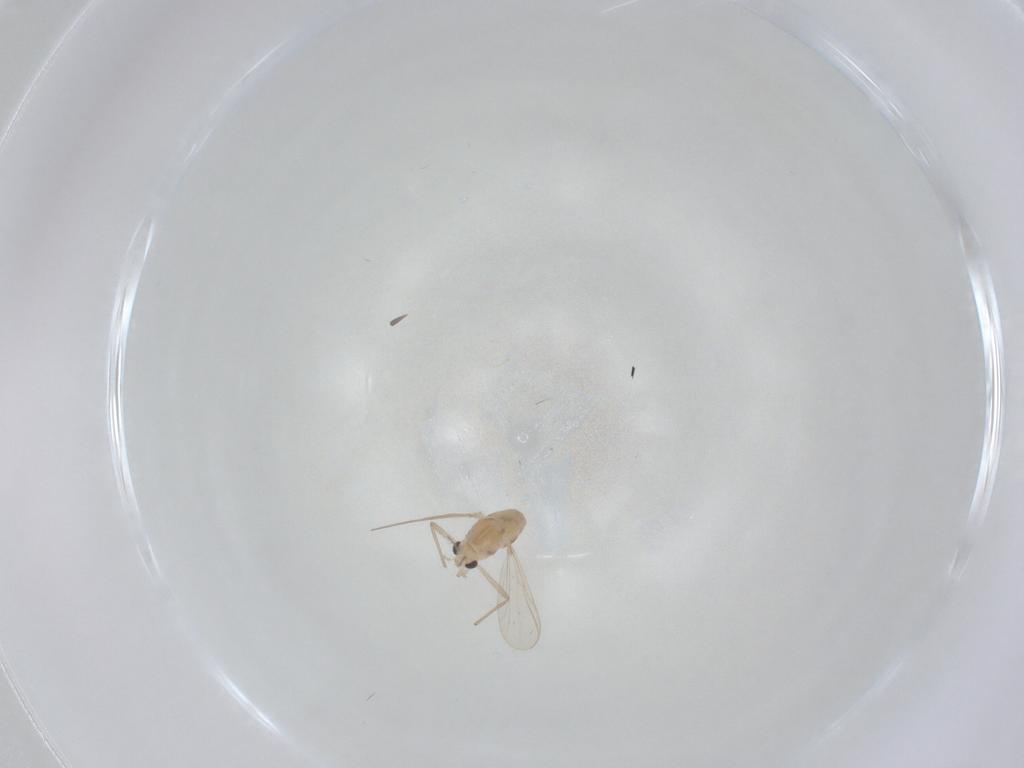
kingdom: Animalia
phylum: Arthropoda
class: Insecta
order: Diptera
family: Chironomidae
